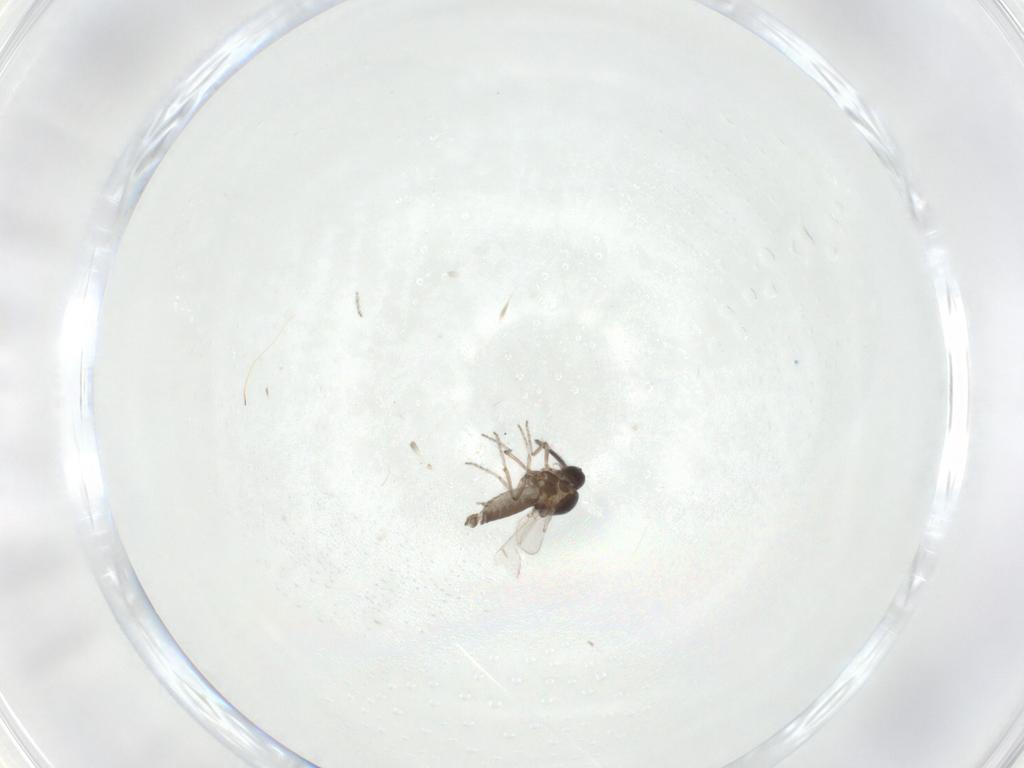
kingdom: Animalia
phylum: Arthropoda
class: Insecta
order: Diptera
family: Ceratopogonidae
